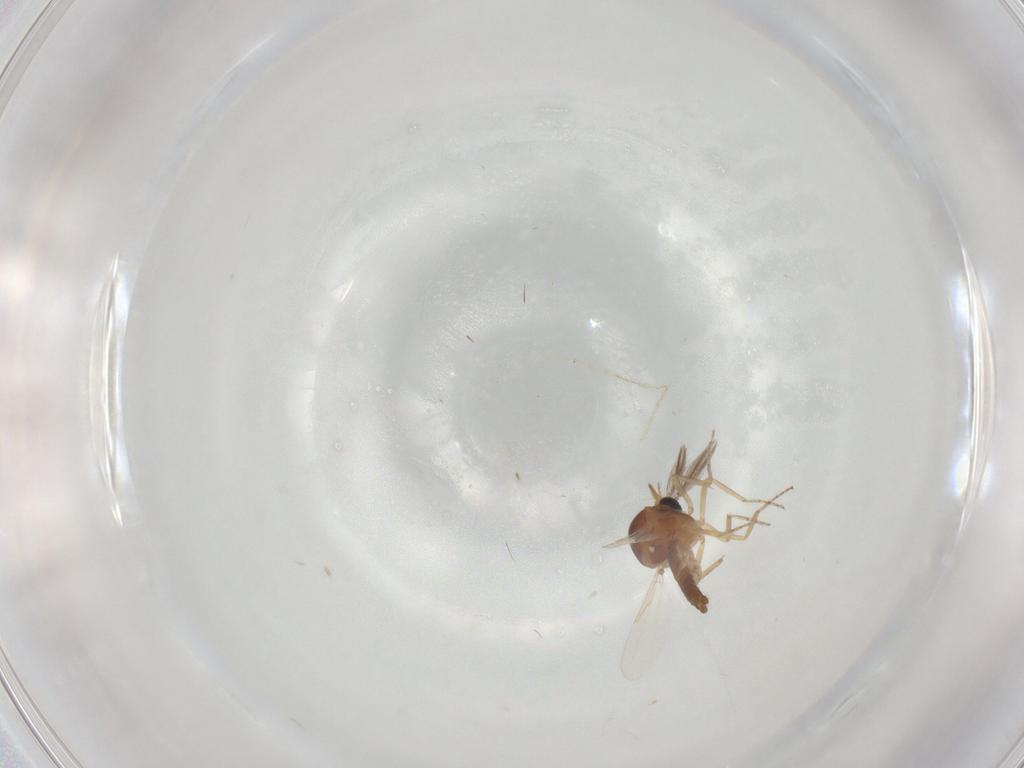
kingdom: Animalia
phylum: Arthropoda
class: Insecta
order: Diptera
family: Ceratopogonidae
